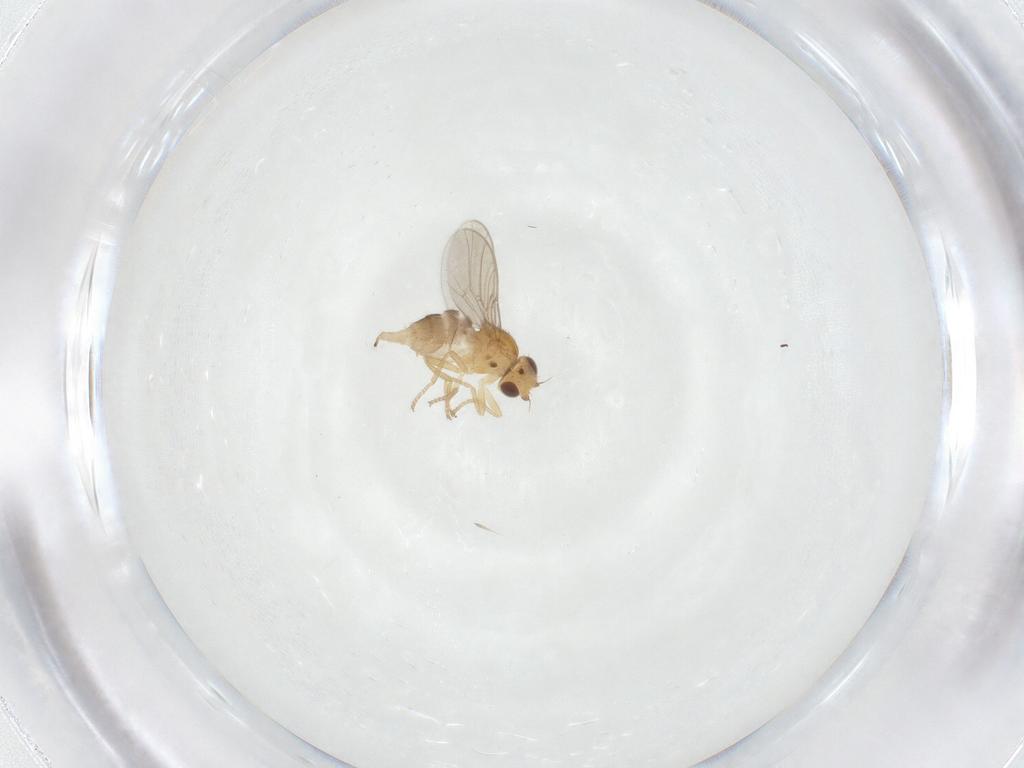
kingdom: Animalia
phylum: Arthropoda
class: Insecta
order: Diptera
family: Chloropidae
